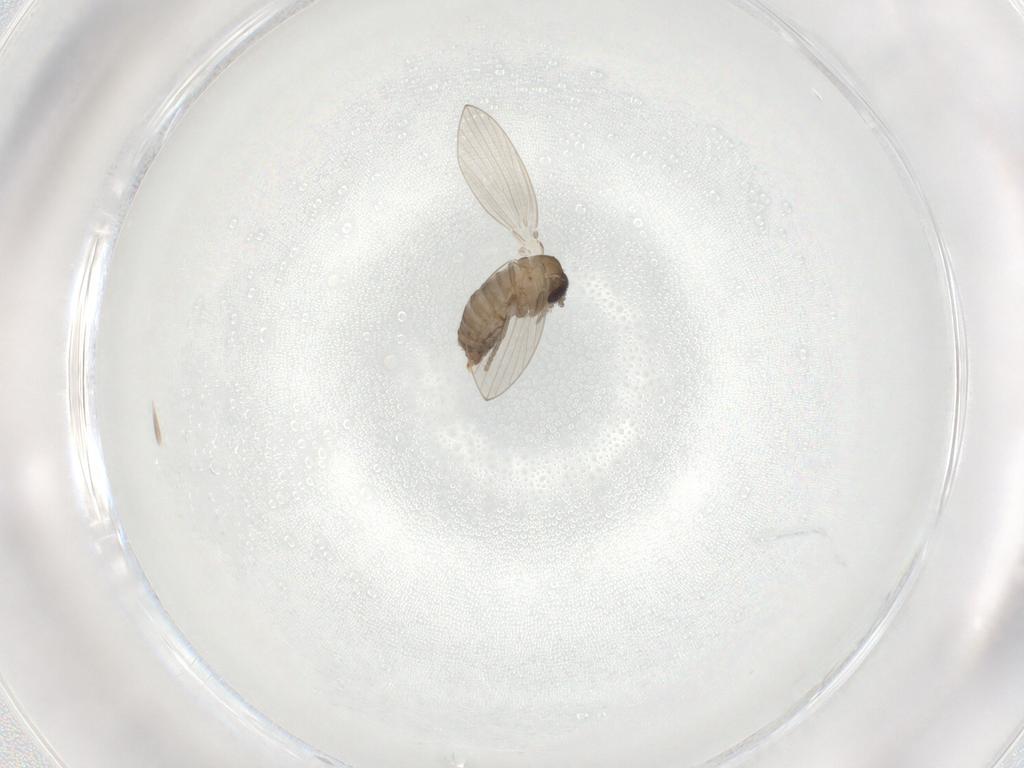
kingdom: Animalia
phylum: Arthropoda
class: Insecta
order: Diptera
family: Psychodidae
